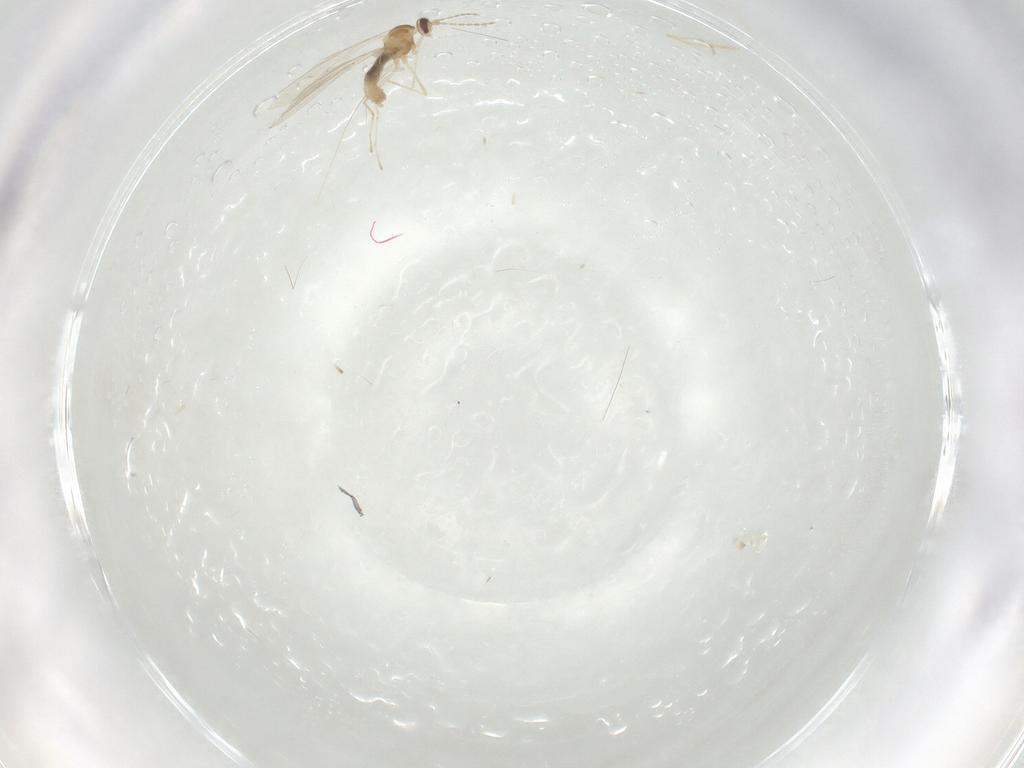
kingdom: Animalia
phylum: Arthropoda
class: Insecta
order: Diptera
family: Cecidomyiidae
